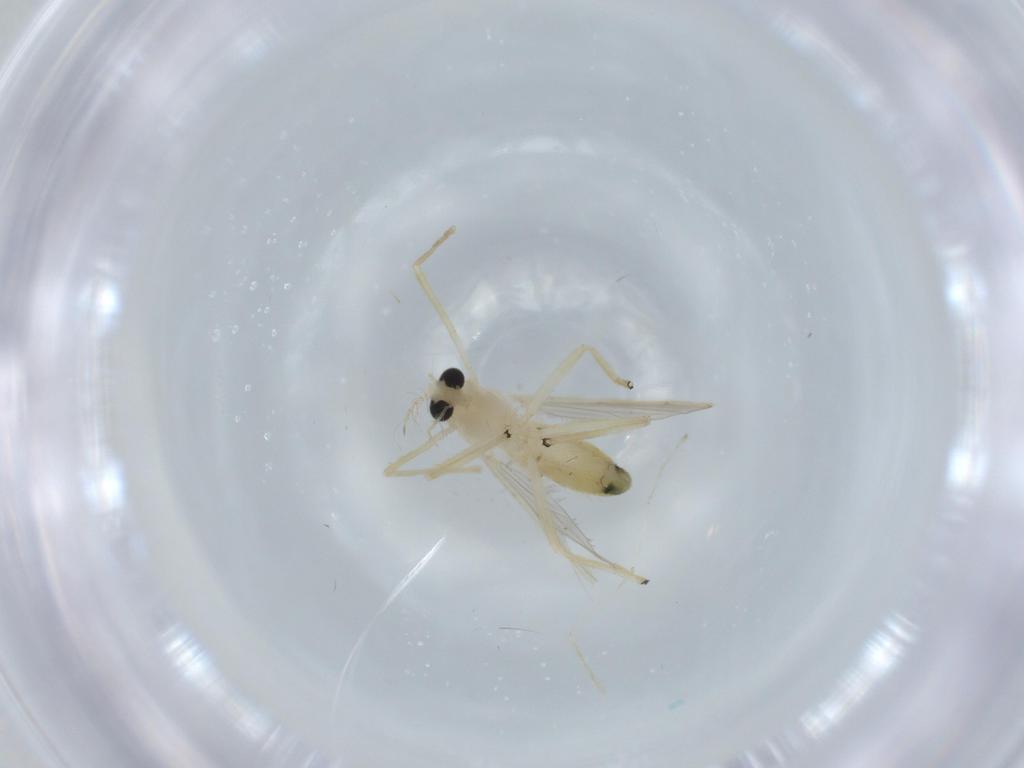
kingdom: Animalia
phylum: Arthropoda
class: Insecta
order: Diptera
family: Chironomidae
